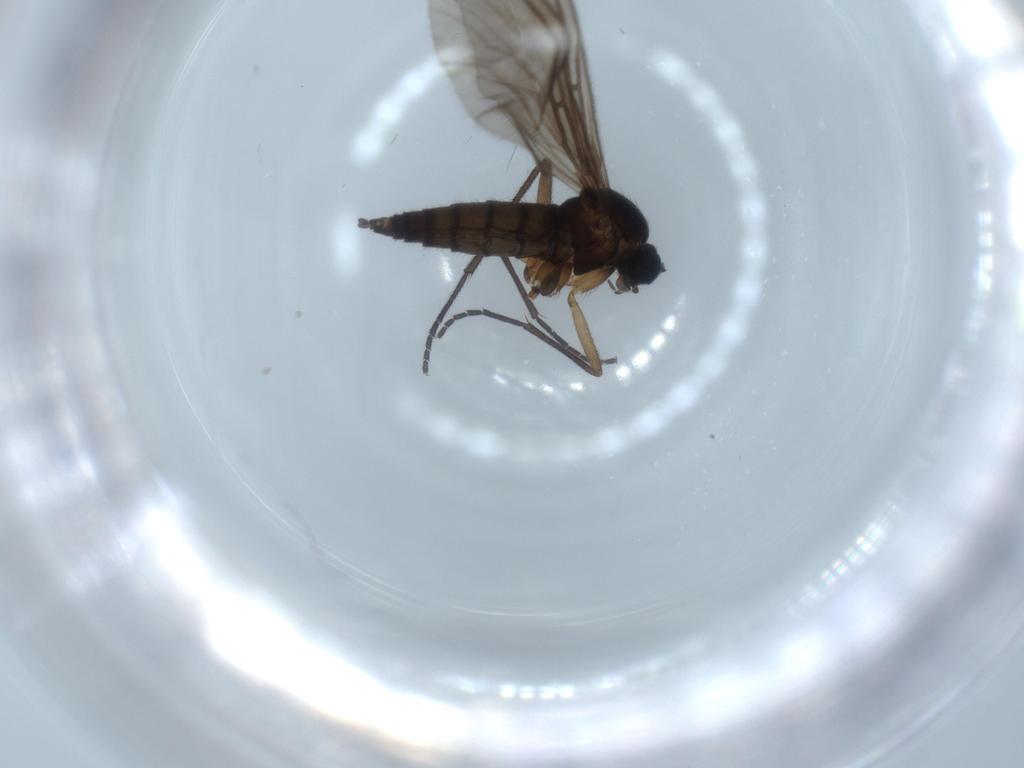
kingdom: Animalia
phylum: Arthropoda
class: Insecta
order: Diptera
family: Sciaridae
